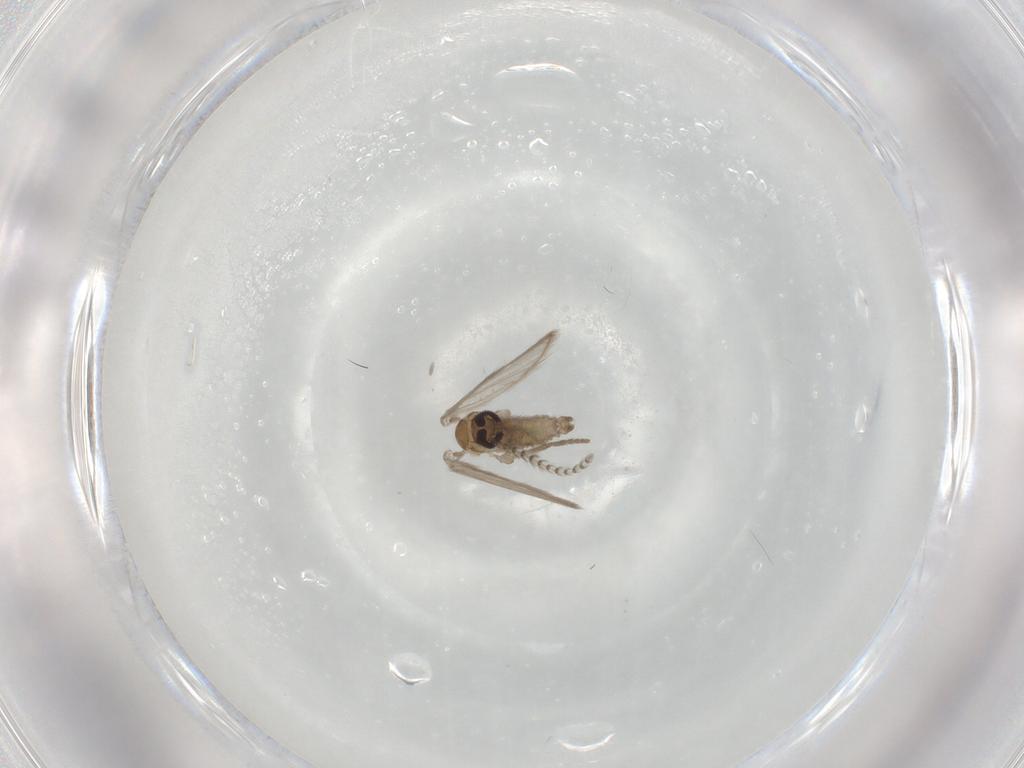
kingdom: Animalia
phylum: Arthropoda
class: Insecta
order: Diptera
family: Psychodidae
